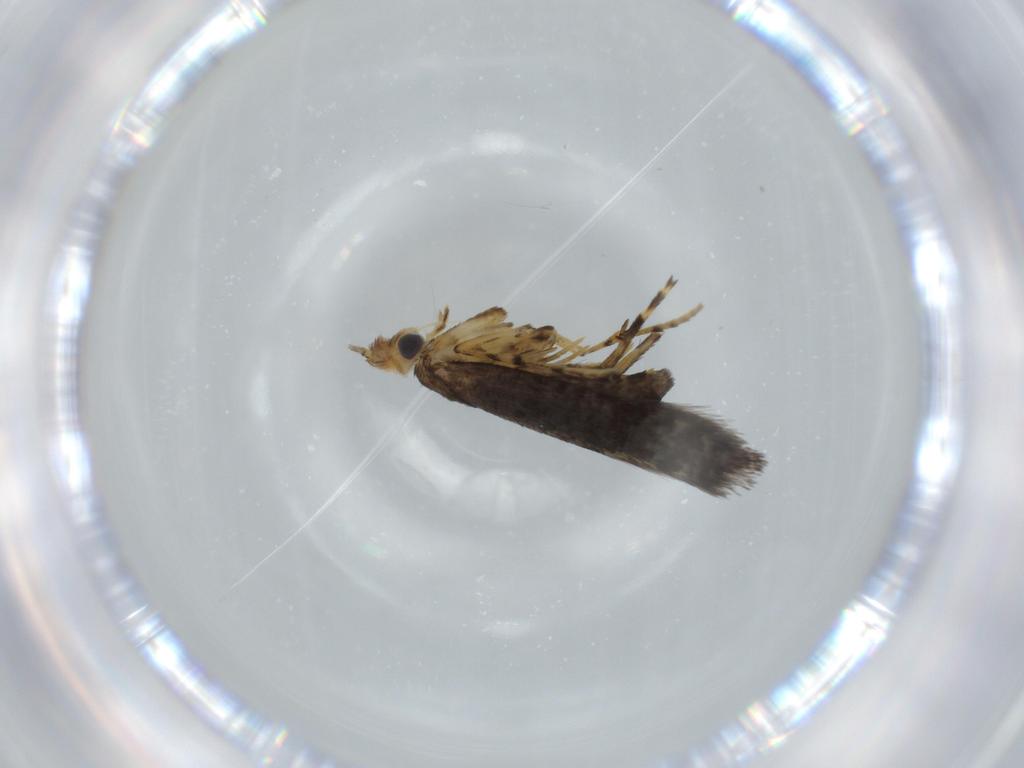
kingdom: Animalia
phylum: Arthropoda
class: Insecta
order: Lepidoptera
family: Argyresthiidae
